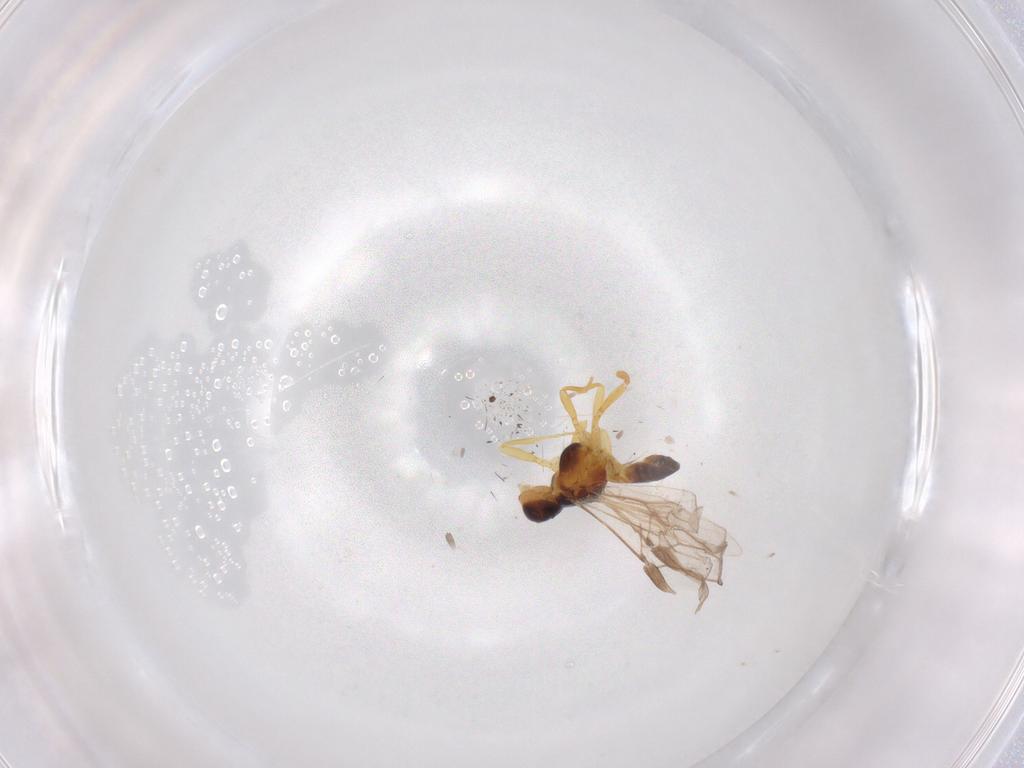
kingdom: Animalia
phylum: Arthropoda
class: Insecta
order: Hymenoptera
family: Braconidae
